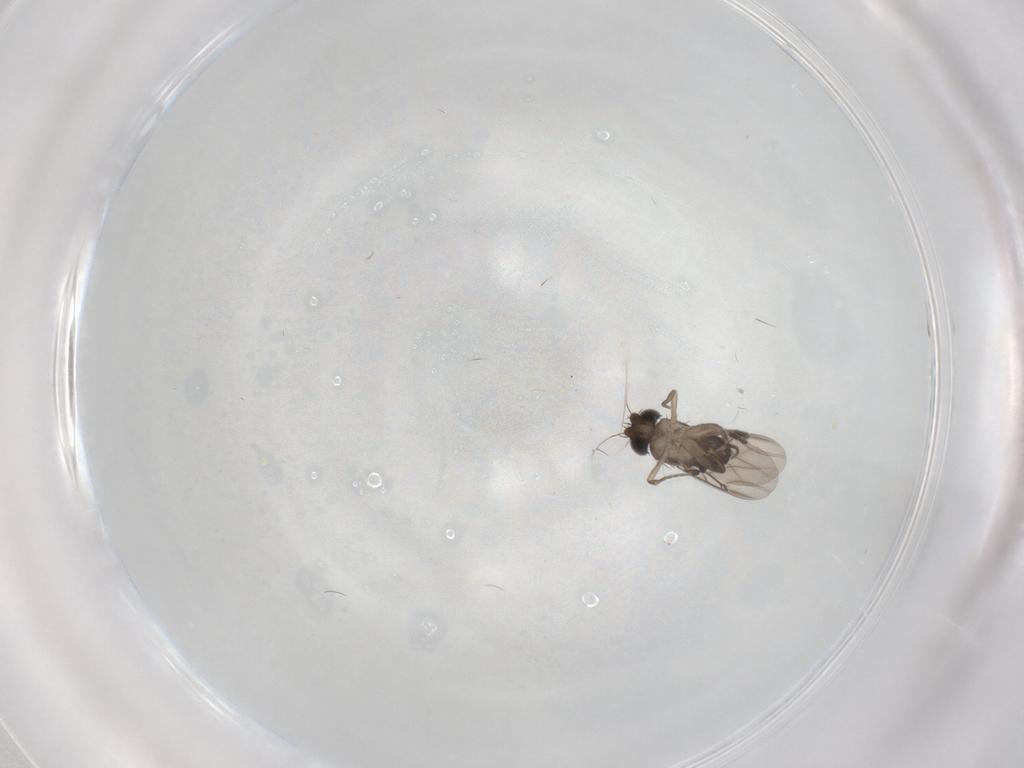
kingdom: Animalia
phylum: Arthropoda
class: Insecta
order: Diptera
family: Phoridae
